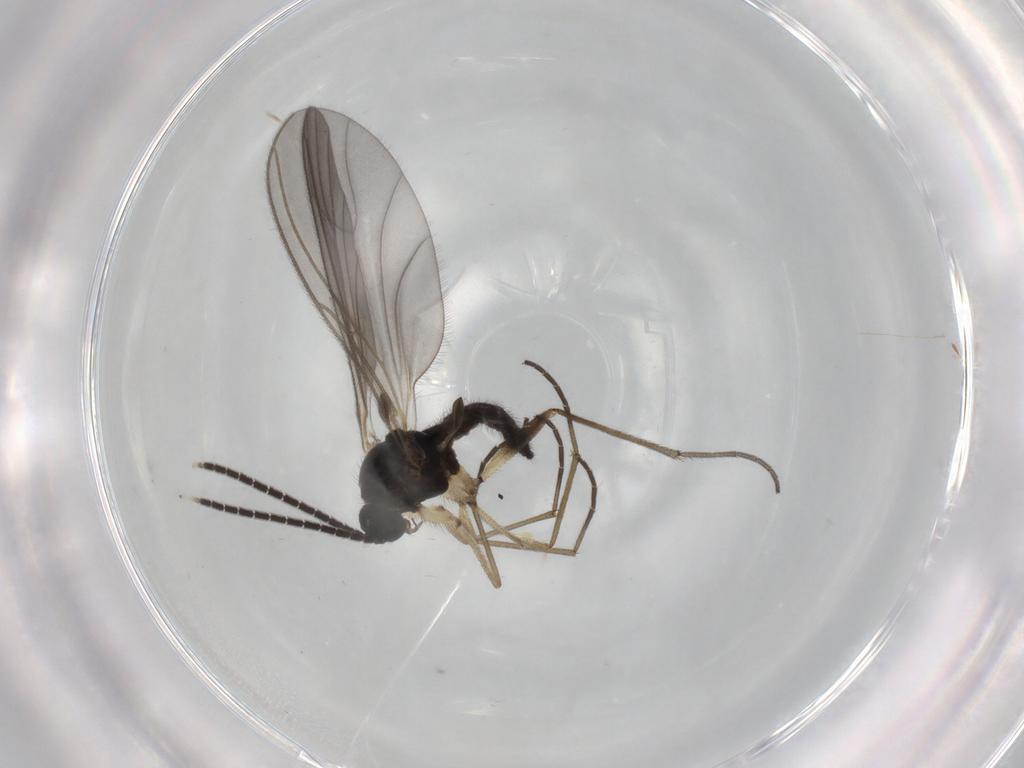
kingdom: Animalia
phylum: Arthropoda
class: Insecta
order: Diptera
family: Sciaridae
